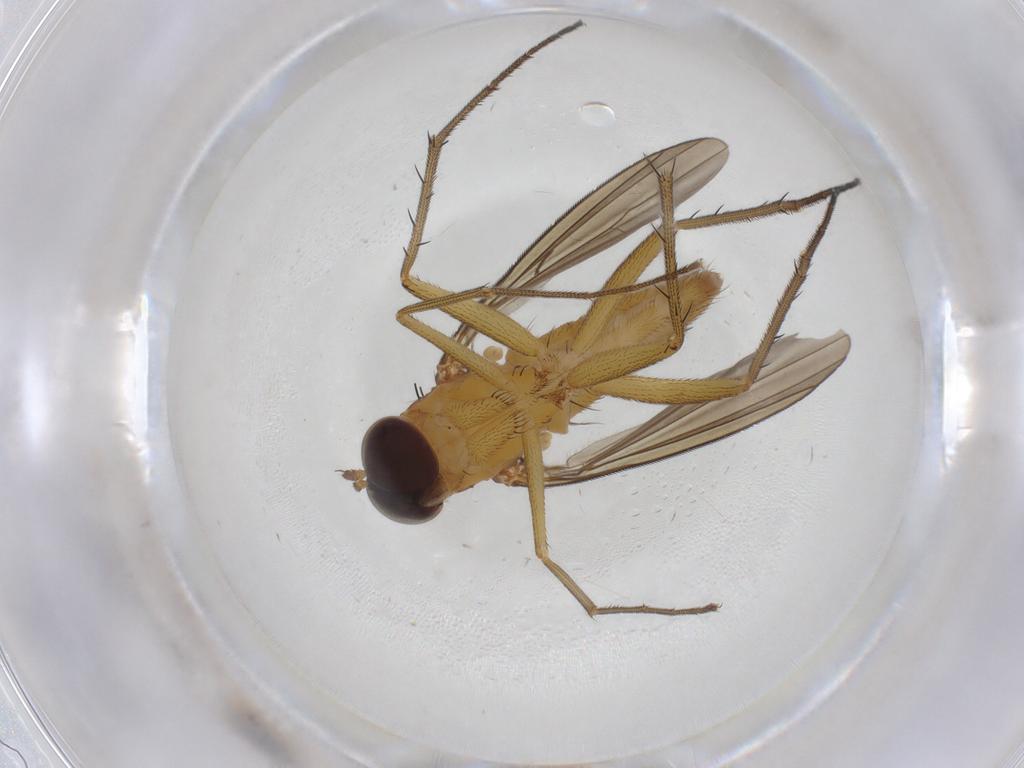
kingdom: Animalia
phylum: Arthropoda
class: Insecta
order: Diptera
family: Dolichopodidae
